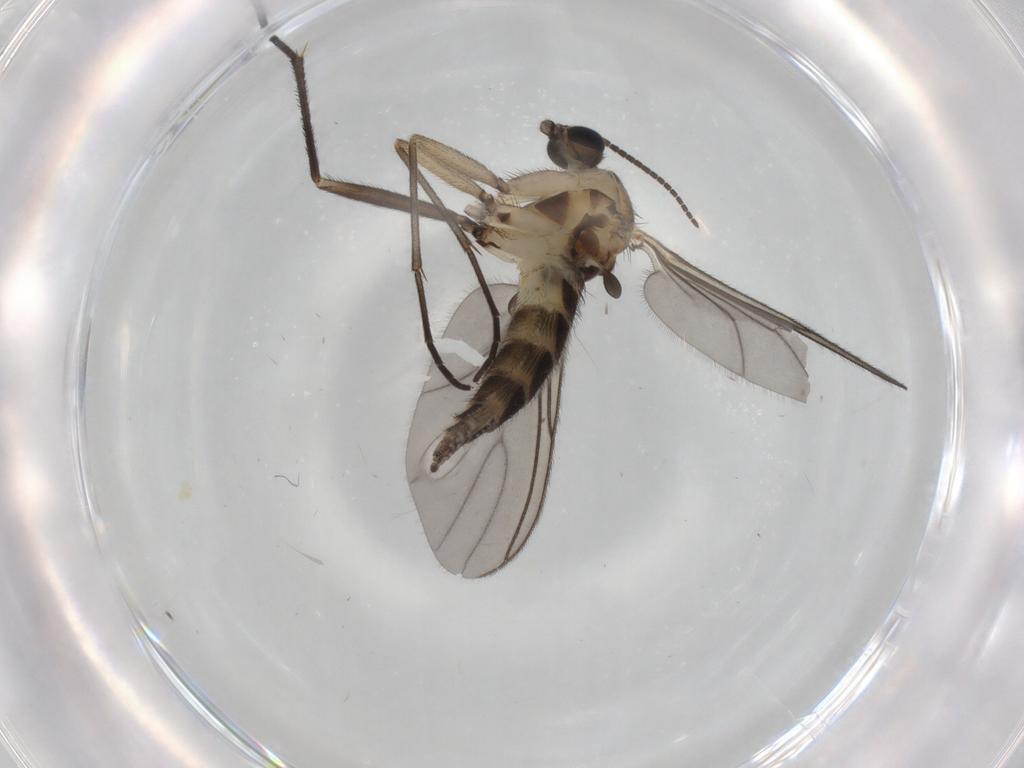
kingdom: Animalia
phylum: Arthropoda
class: Insecta
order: Diptera
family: Sciaridae
